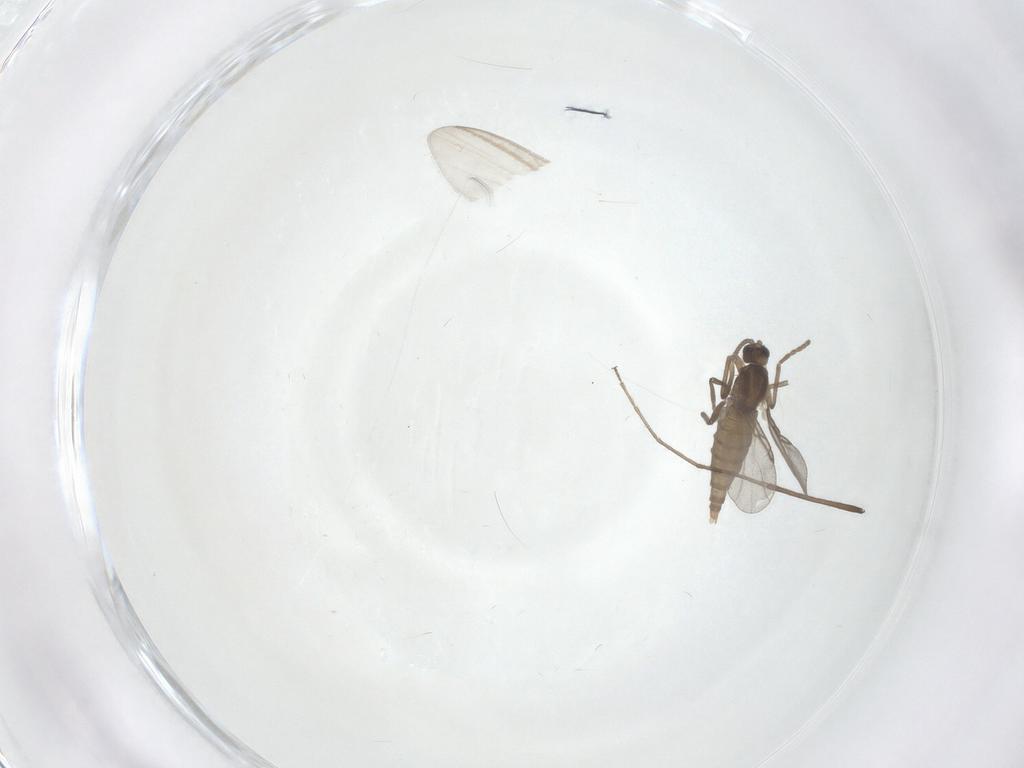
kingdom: Animalia
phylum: Arthropoda
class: Insecta
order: Diptera
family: Cecidomyiidae
